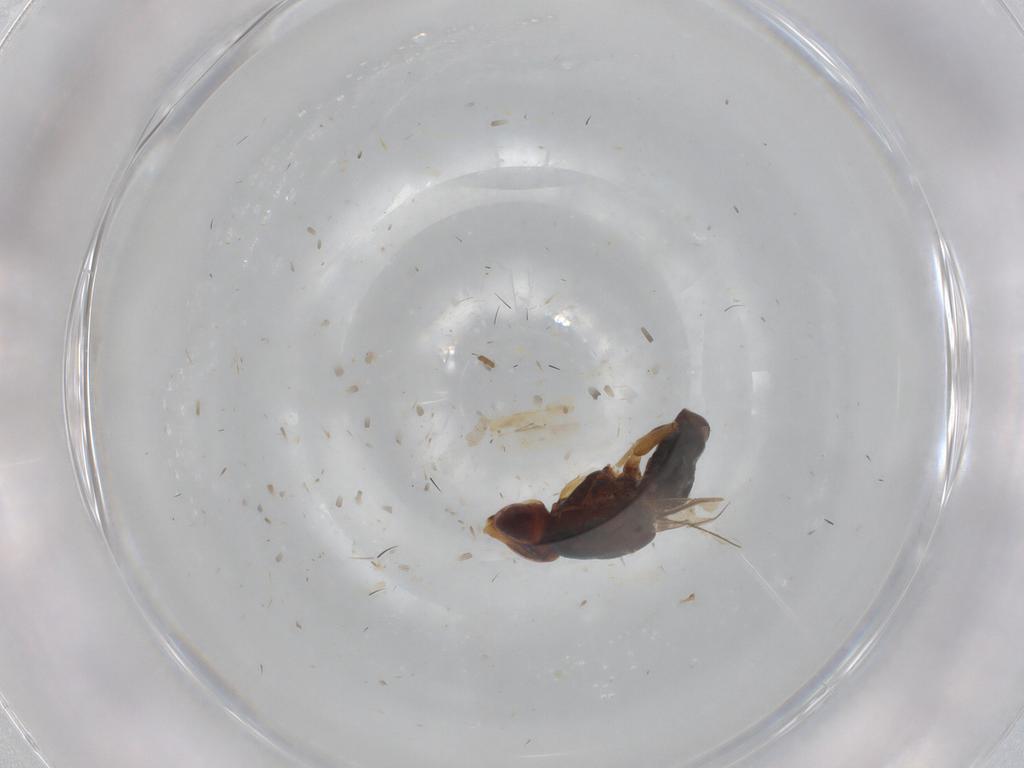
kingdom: Animalia
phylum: Arthropoda
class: Insecta
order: Diptera
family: Chloropidae
